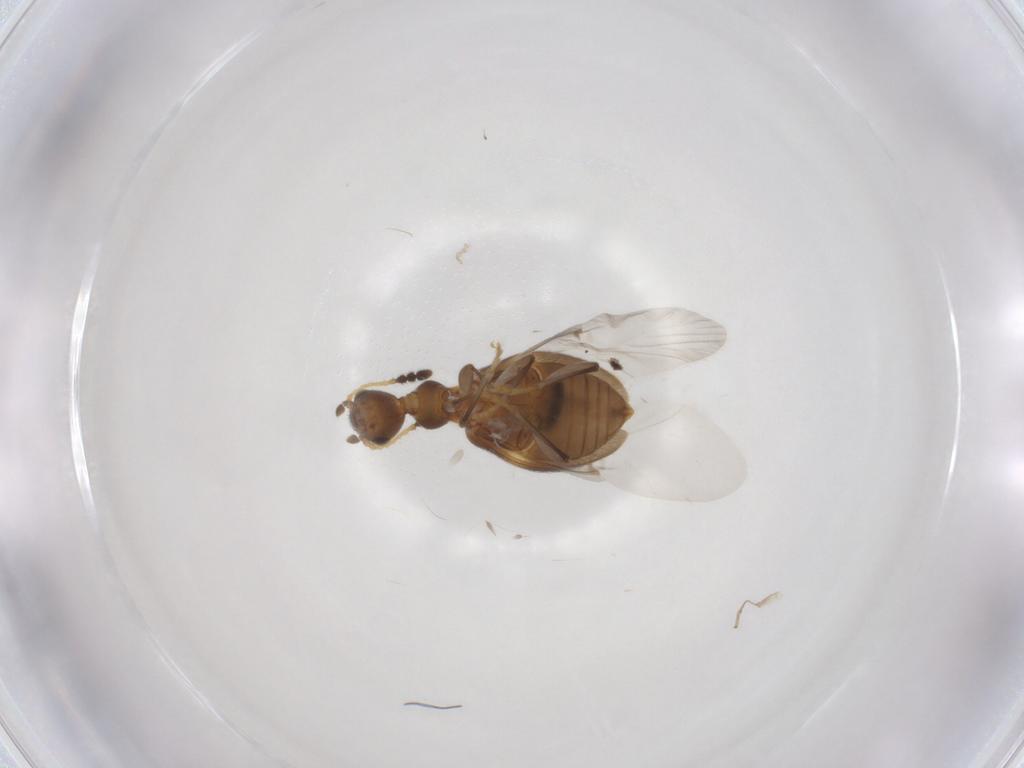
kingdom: Animalia
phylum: Arthropoda
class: Insecta
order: Coleoptera
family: Anthicidae
